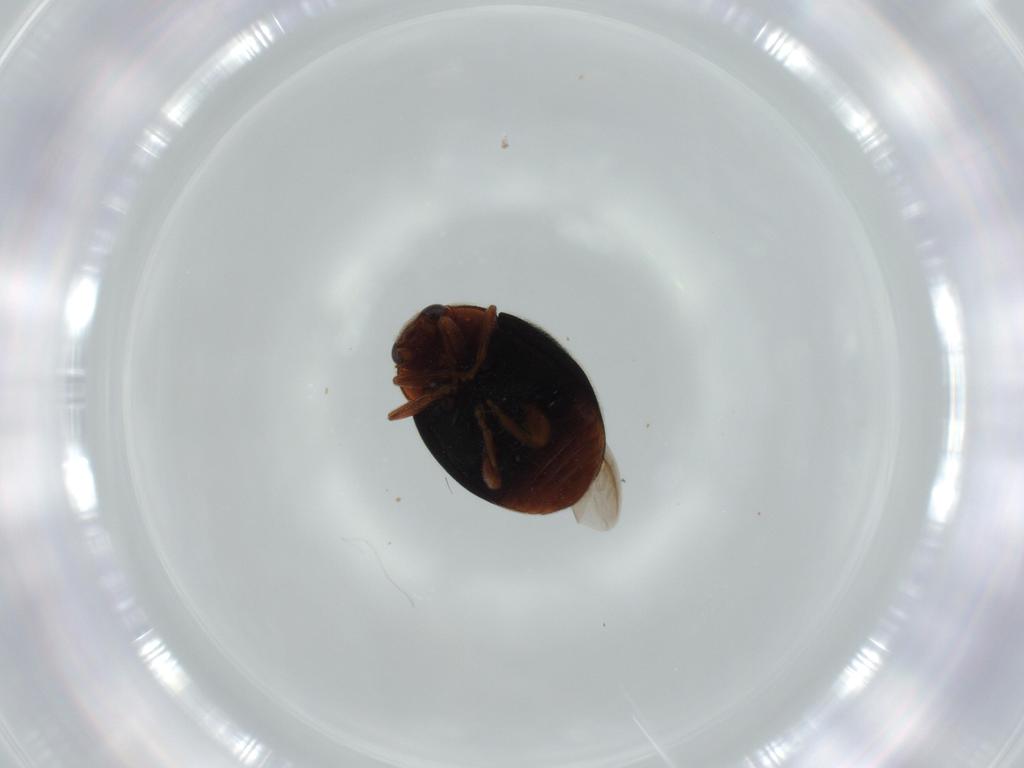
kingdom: Animalia
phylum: Arthropoda
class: Insecta
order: Coleoptera
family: Coccinellidae
